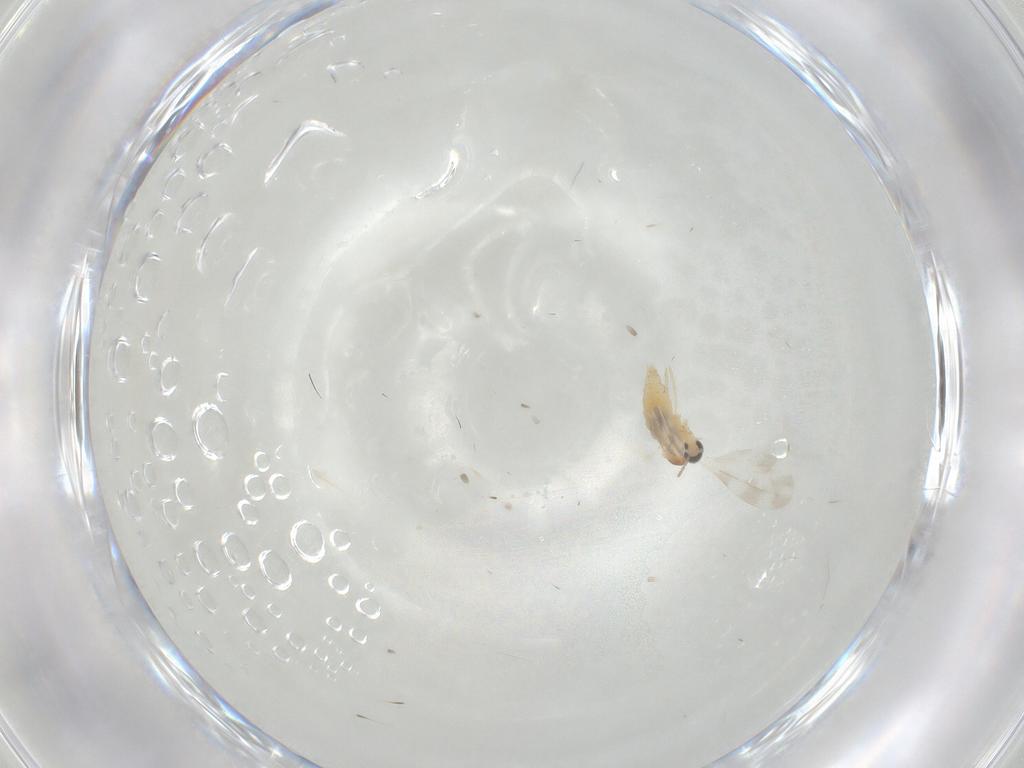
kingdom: Animalia
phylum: Arthropoda
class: Insecta
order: Diptera
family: Cecidomyiidae
